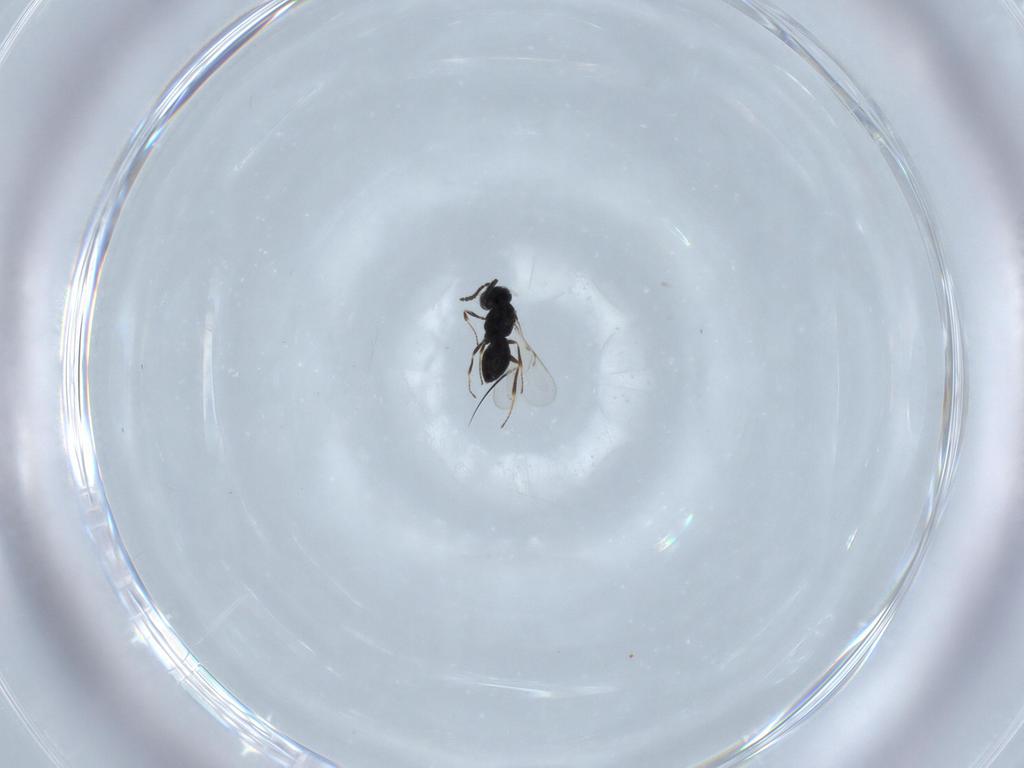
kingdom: Animalia
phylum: Arthropoda
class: Insecta
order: Hymenoptera
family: Scelionidae
